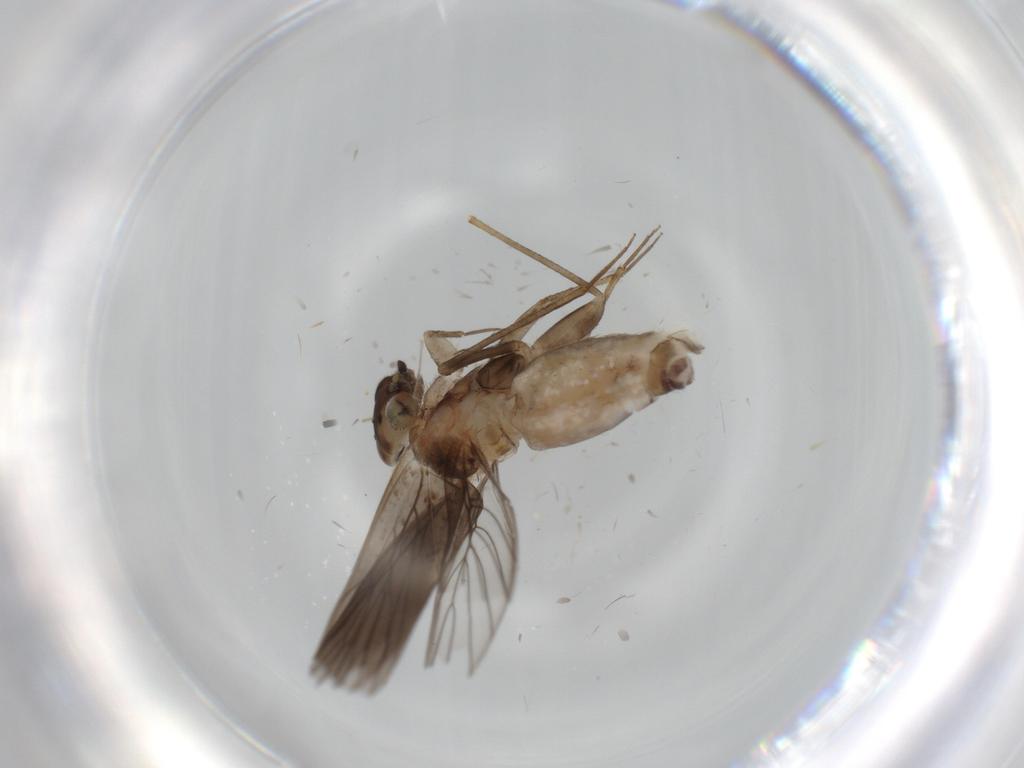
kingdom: Animalia
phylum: Arthropoda
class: Insecta
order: Psocodea
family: Lepidopsocidae
